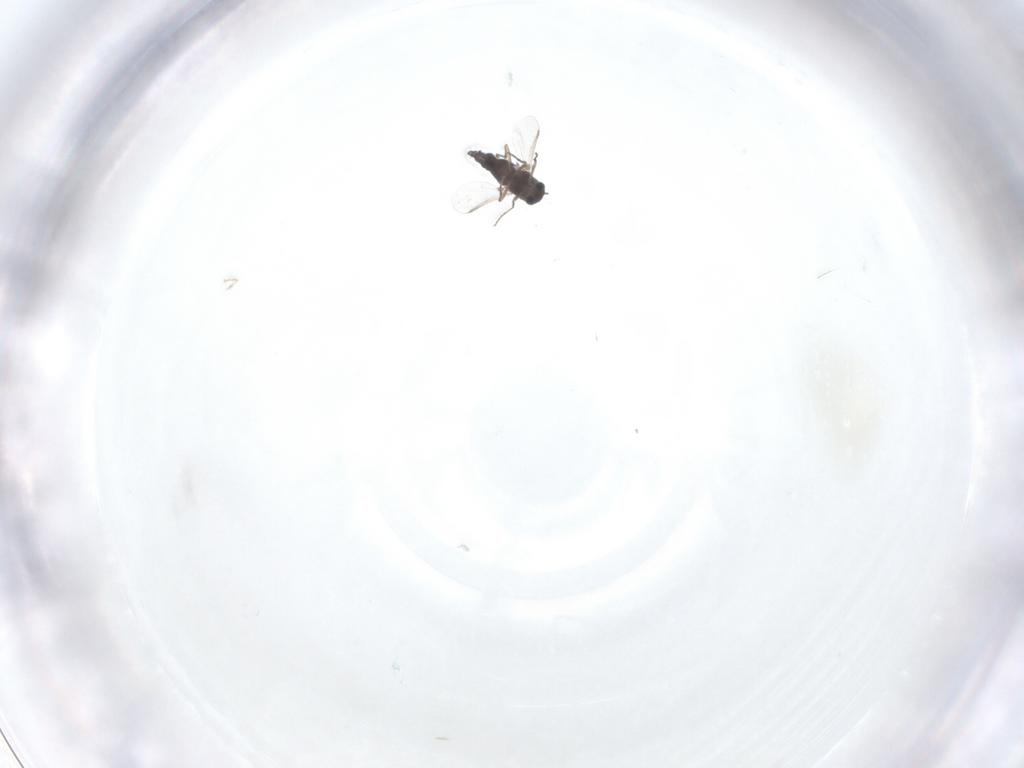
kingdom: Animalia
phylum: Arthropoda
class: Insecta
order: Diptera
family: Chironomidae
